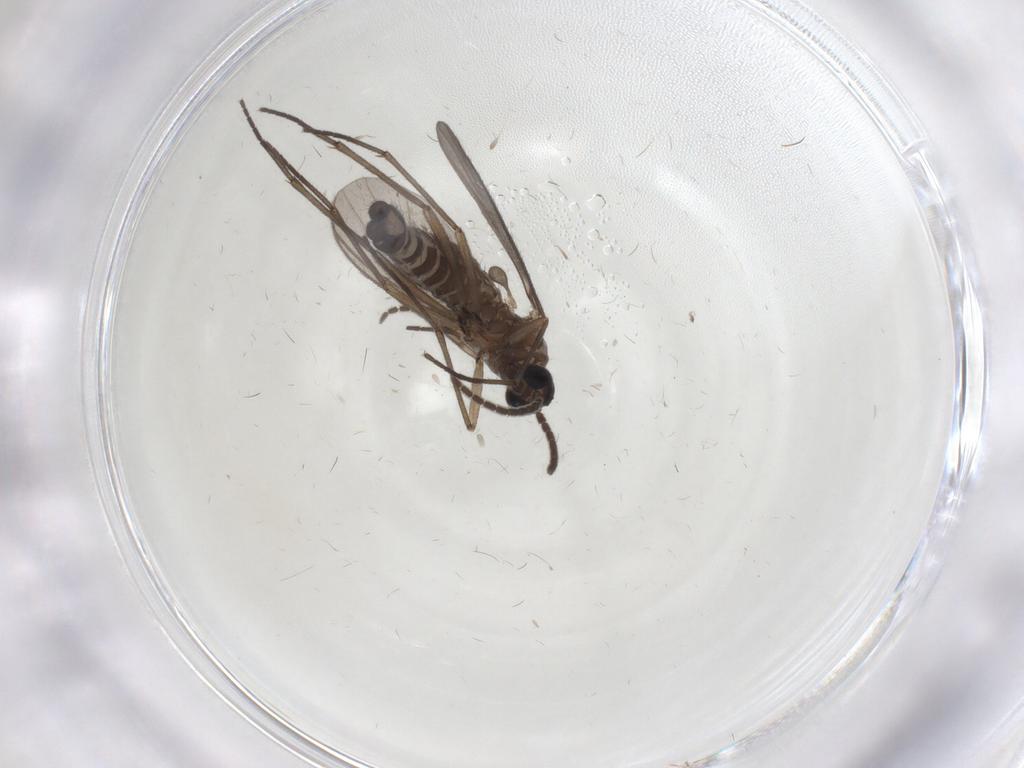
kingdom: Animalia
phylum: Arthropoda
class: Insecta
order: Diptera
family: Sciaridae
